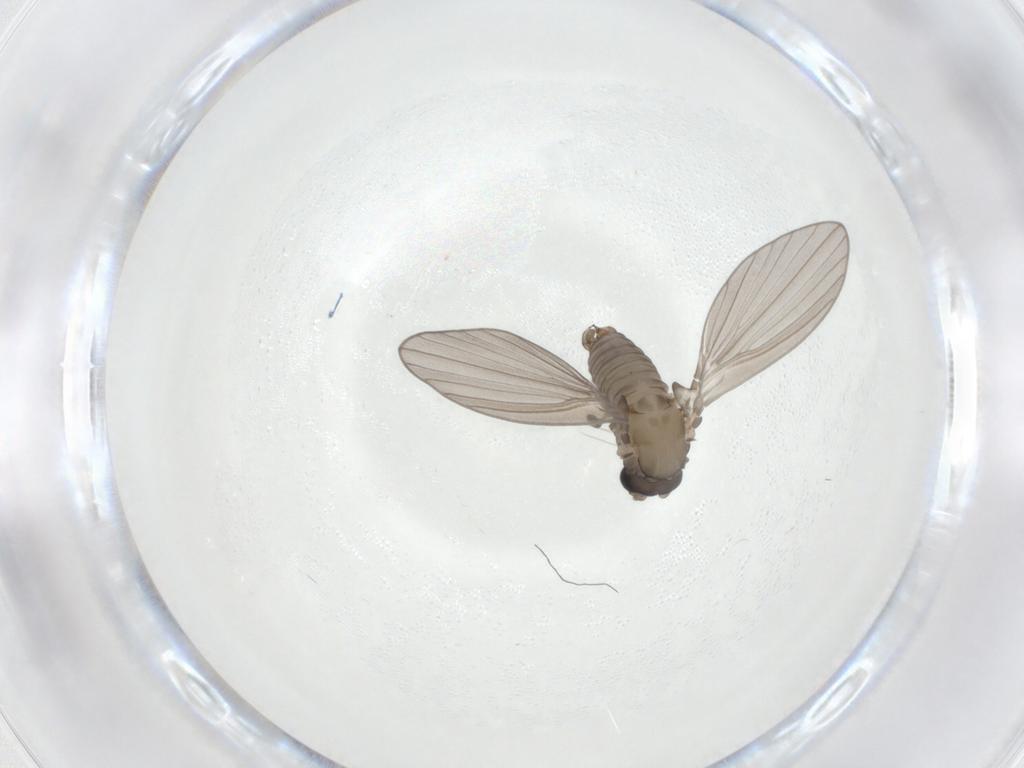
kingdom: Animalia
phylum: Arthropoda
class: Insecta
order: Diptera
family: Psychodidae
